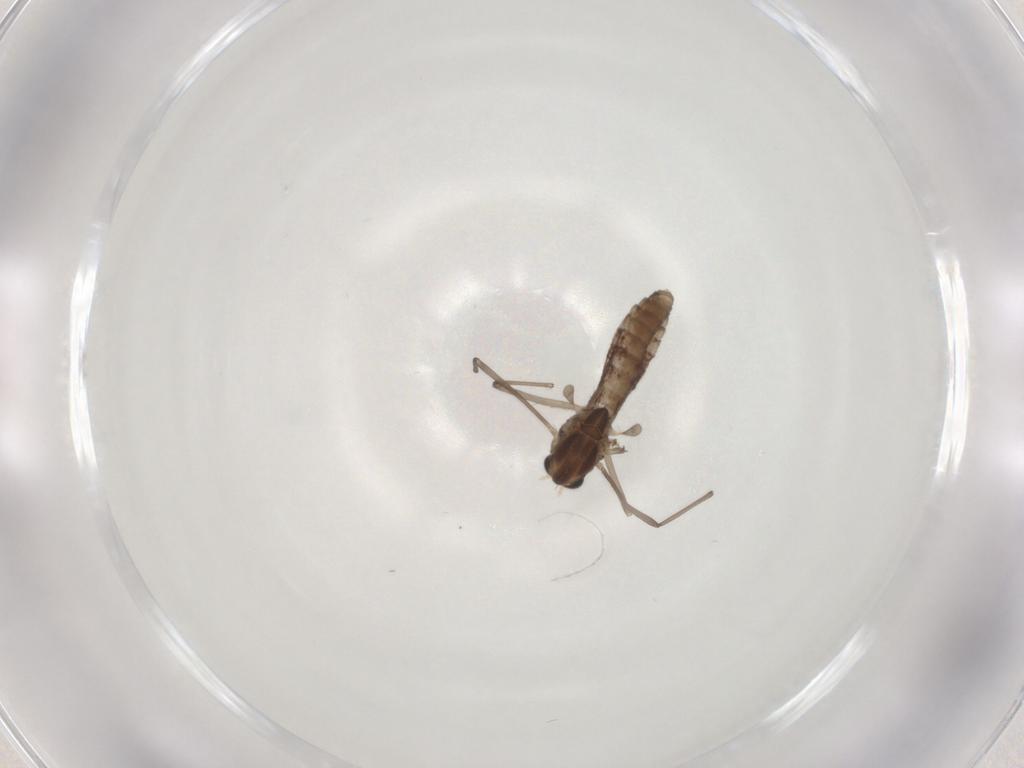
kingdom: Animalia
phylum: Arthropoda
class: Insecta
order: Diptera
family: Chironomidae
